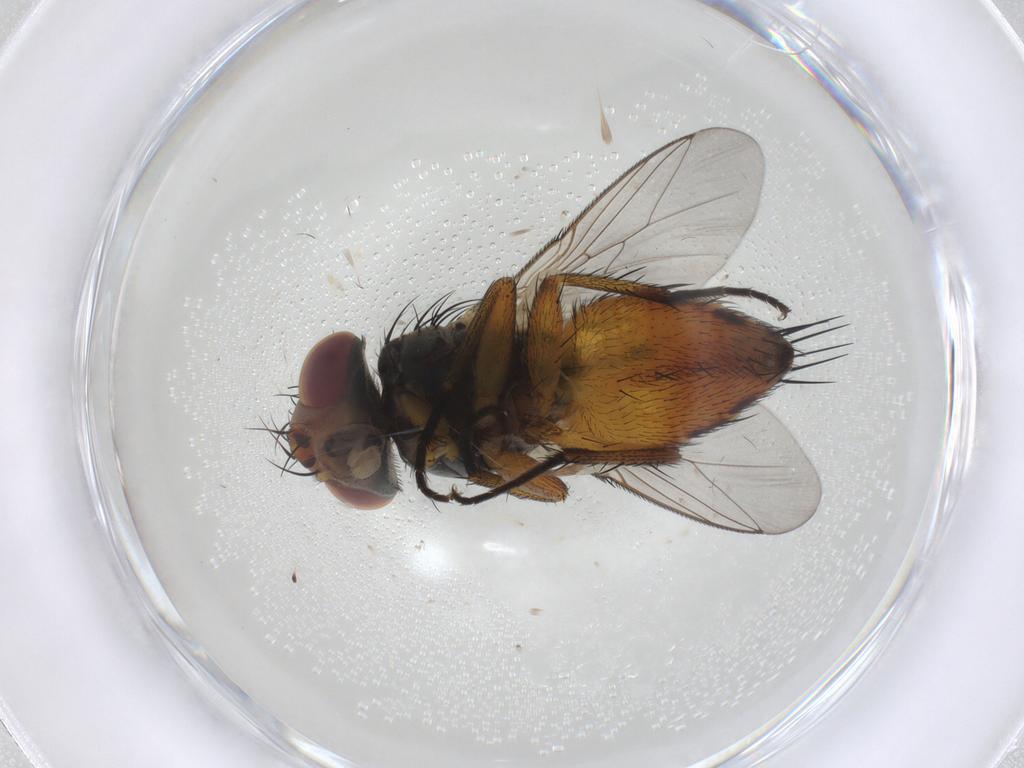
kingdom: Animalia
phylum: Arthropoda
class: Insecta
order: Diptera
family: Sarcophagidae
